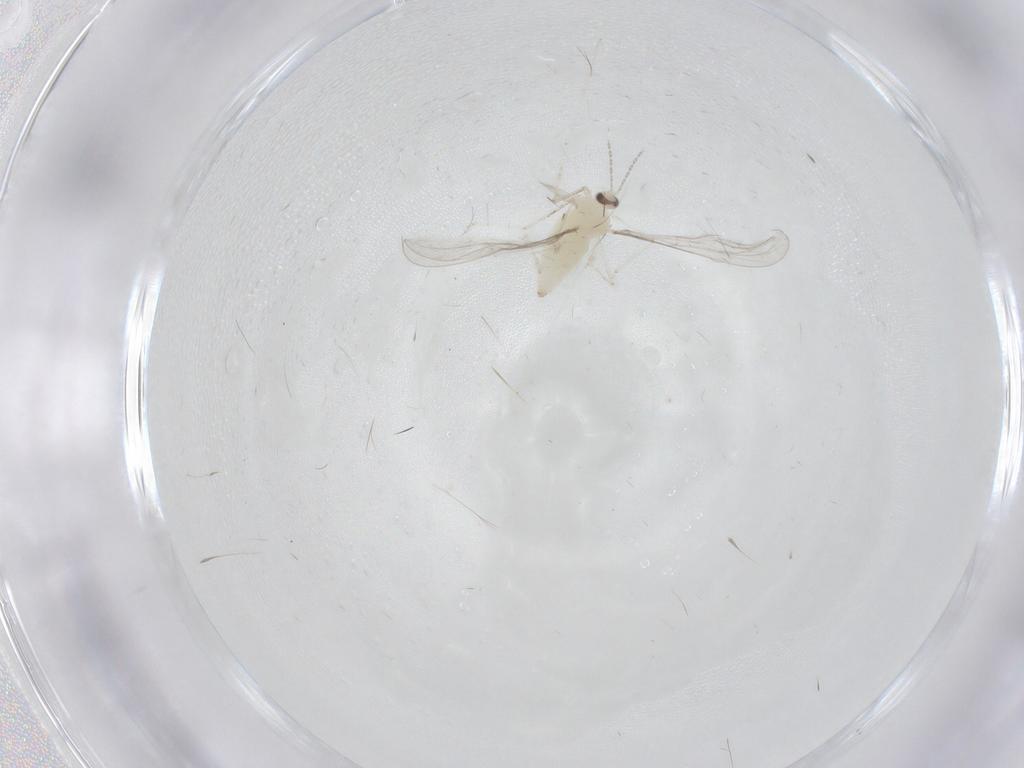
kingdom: Animalia
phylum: Arthropoda
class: Insecta
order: Diptera
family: Cecidomyiidae
